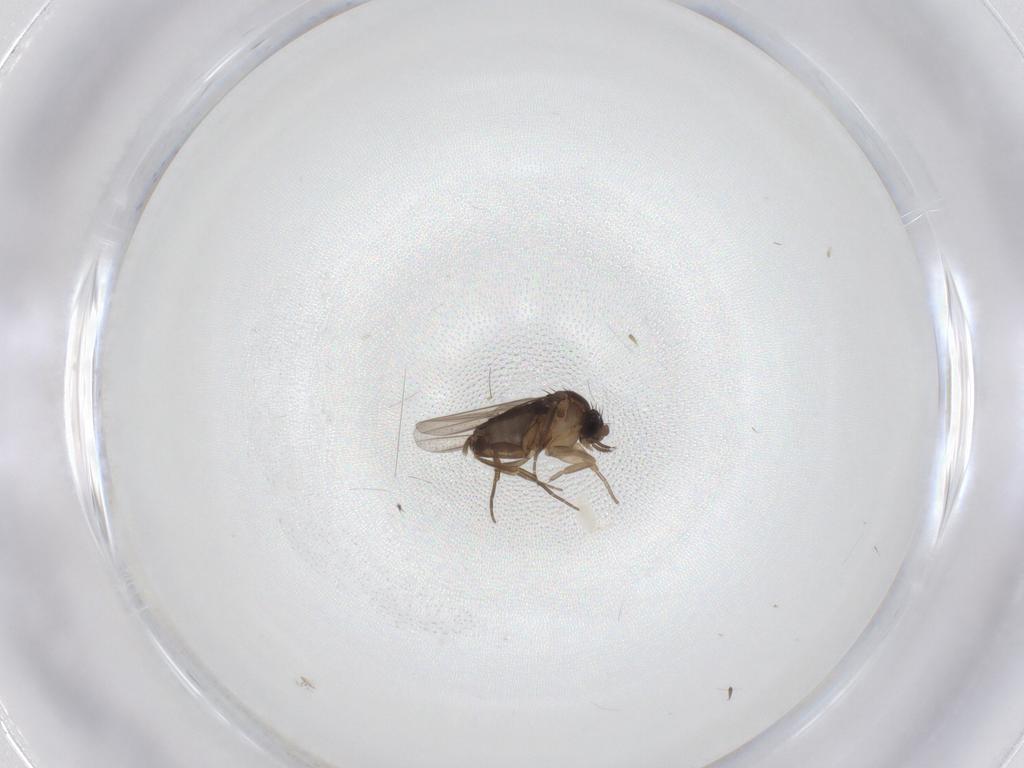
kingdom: Animalia
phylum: Arthropoda
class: Insecta
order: Diptera
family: Phoridae
